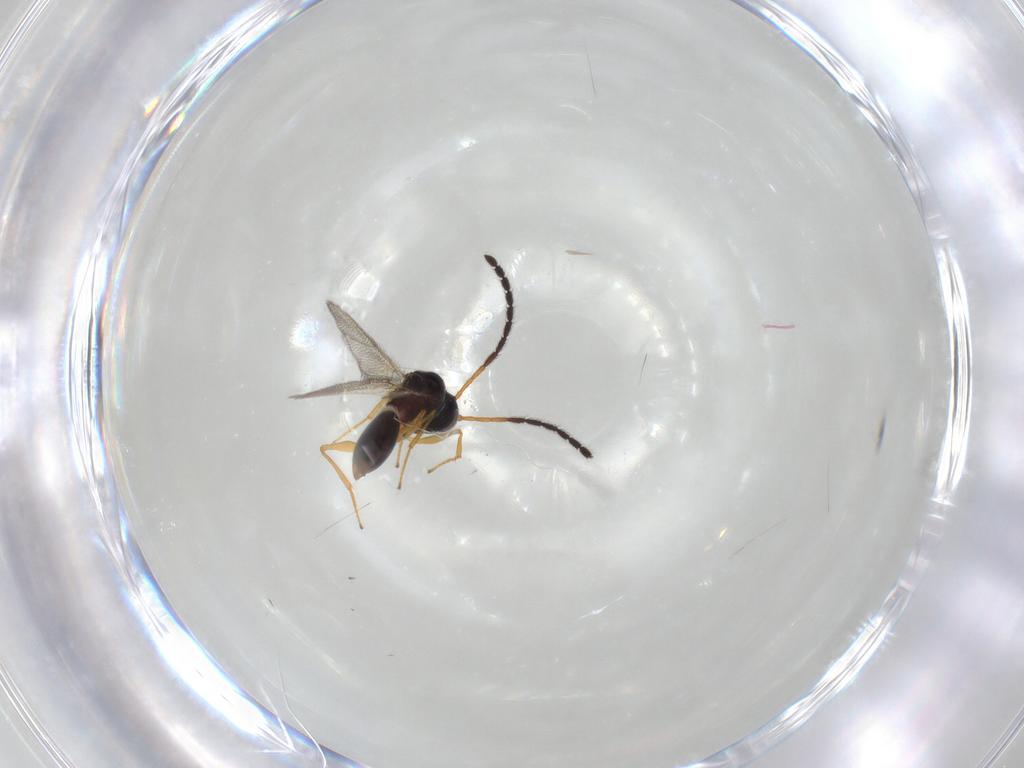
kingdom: Animalia
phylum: Arthropoda
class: Insecta
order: Hymenoptera
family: Figitidae
